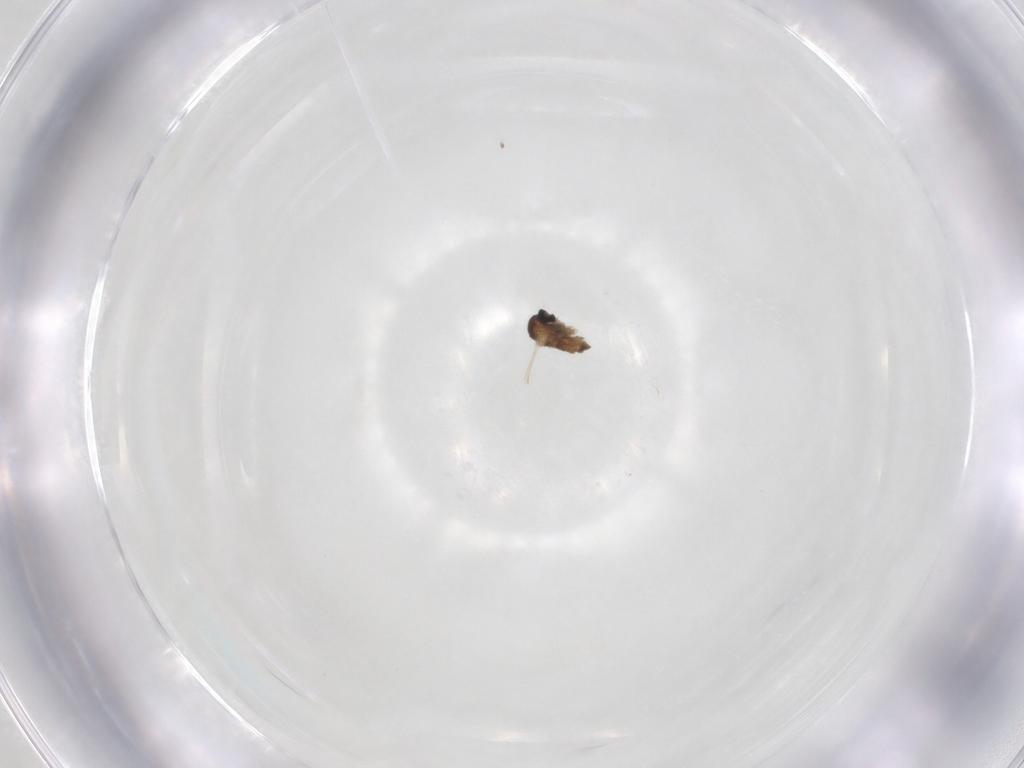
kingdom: Animalia
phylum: Arthropoda
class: Insecta
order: Diptera
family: Cecidomyiidae
